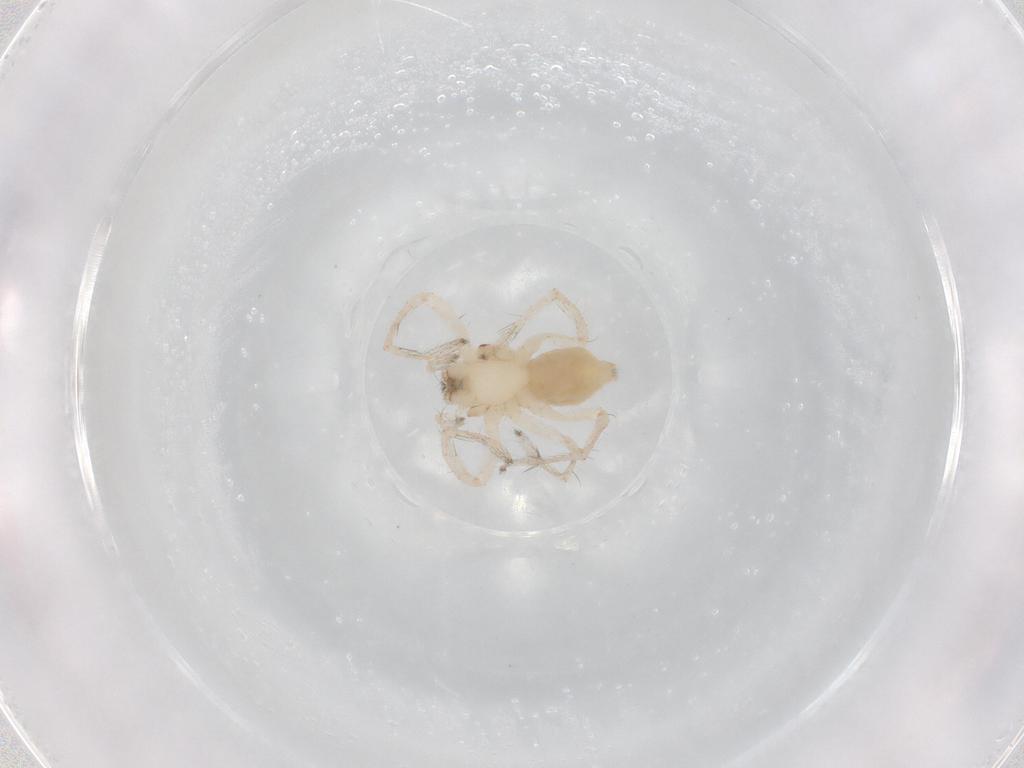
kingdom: Animalia
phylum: Arthropoda
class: Arachnida
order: Araneae
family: Anyphaenidae
